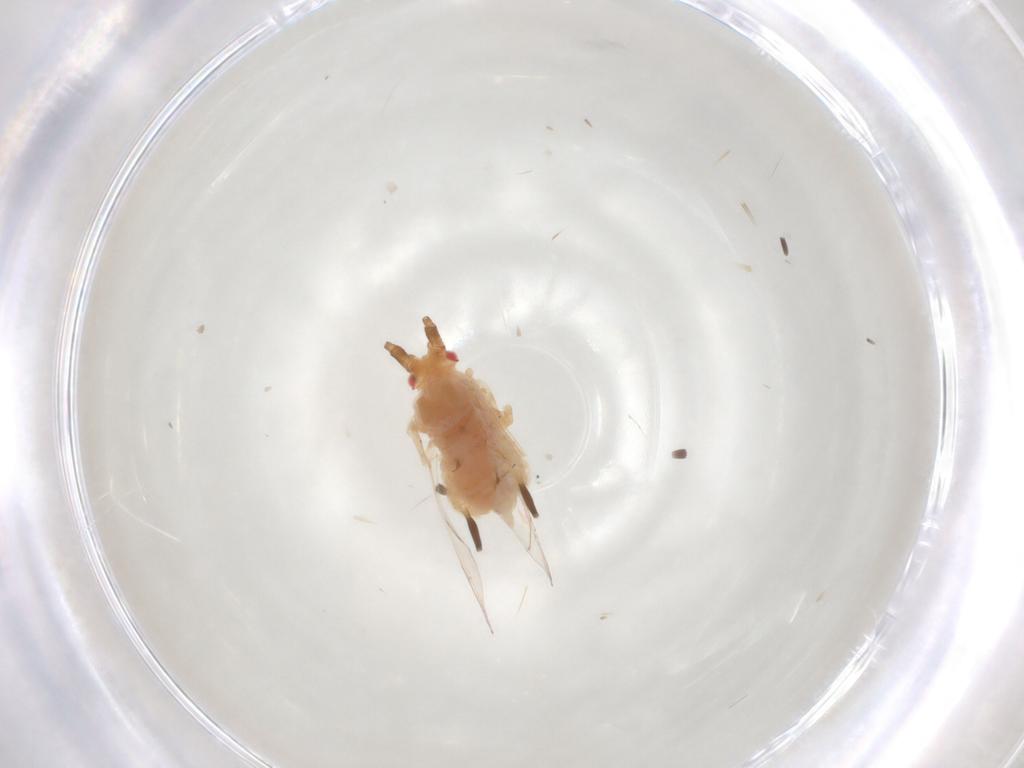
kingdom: Animalia
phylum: Arthropoda
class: Insecta
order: Hemiptera
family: Aphididae
